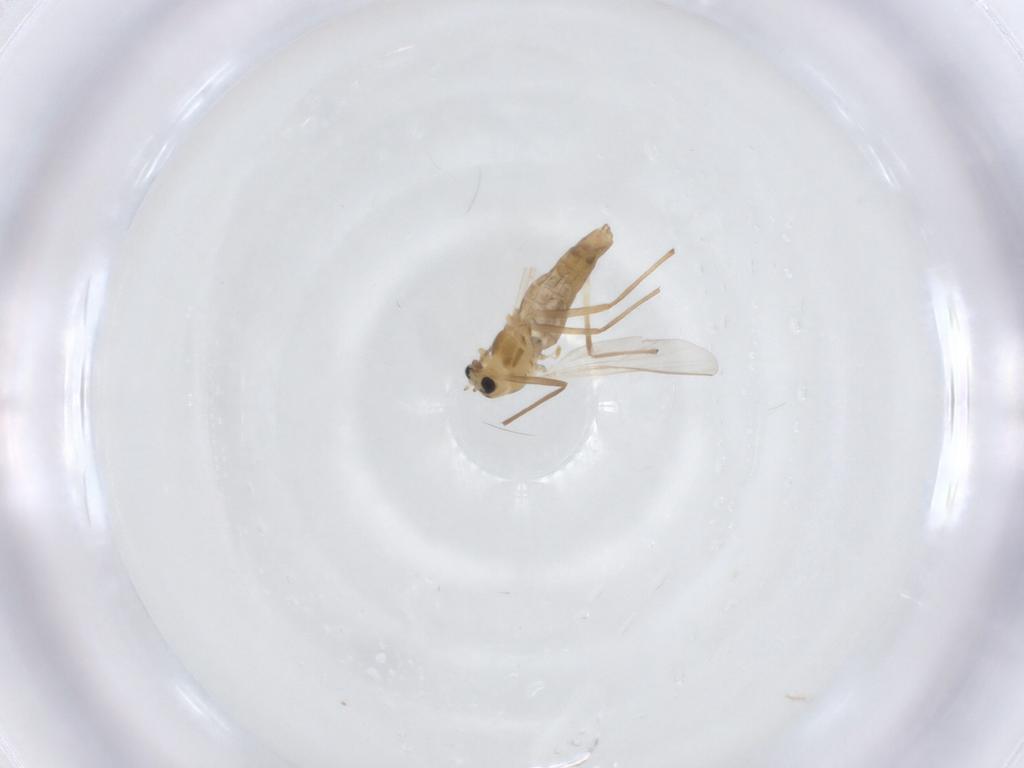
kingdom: Animalia
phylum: Arthropoda
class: Insecta
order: Diptera
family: Chironomidae
